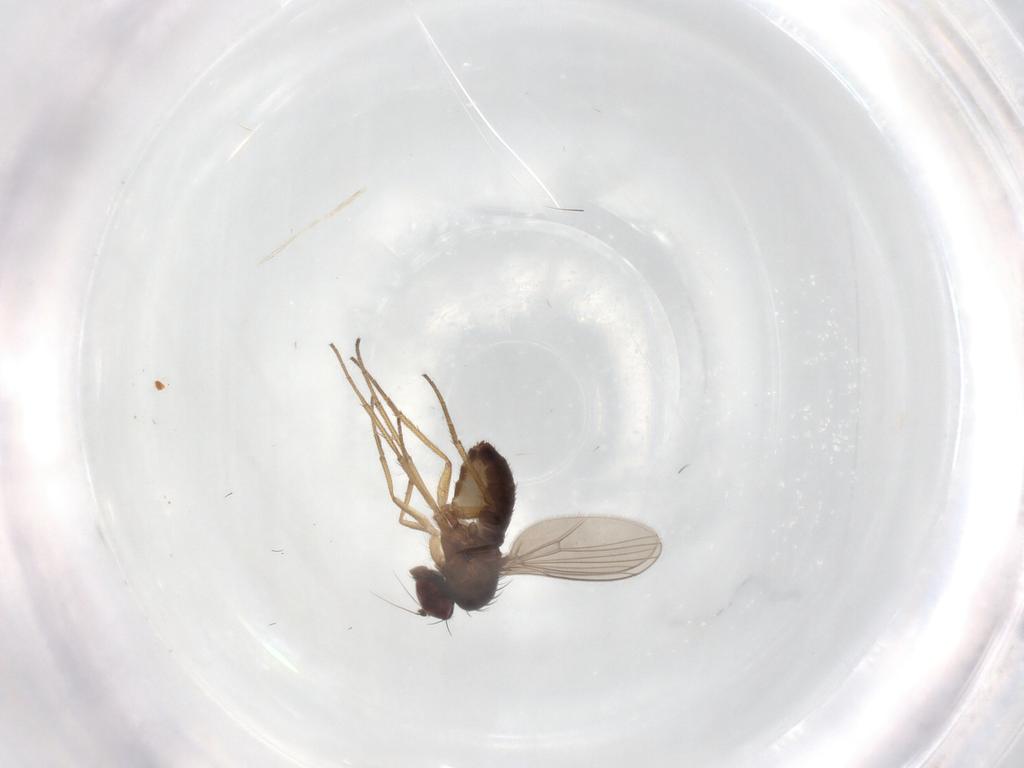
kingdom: Animalia
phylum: Arthropoda
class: Insecta
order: Diptera
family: Dolichopodidae
